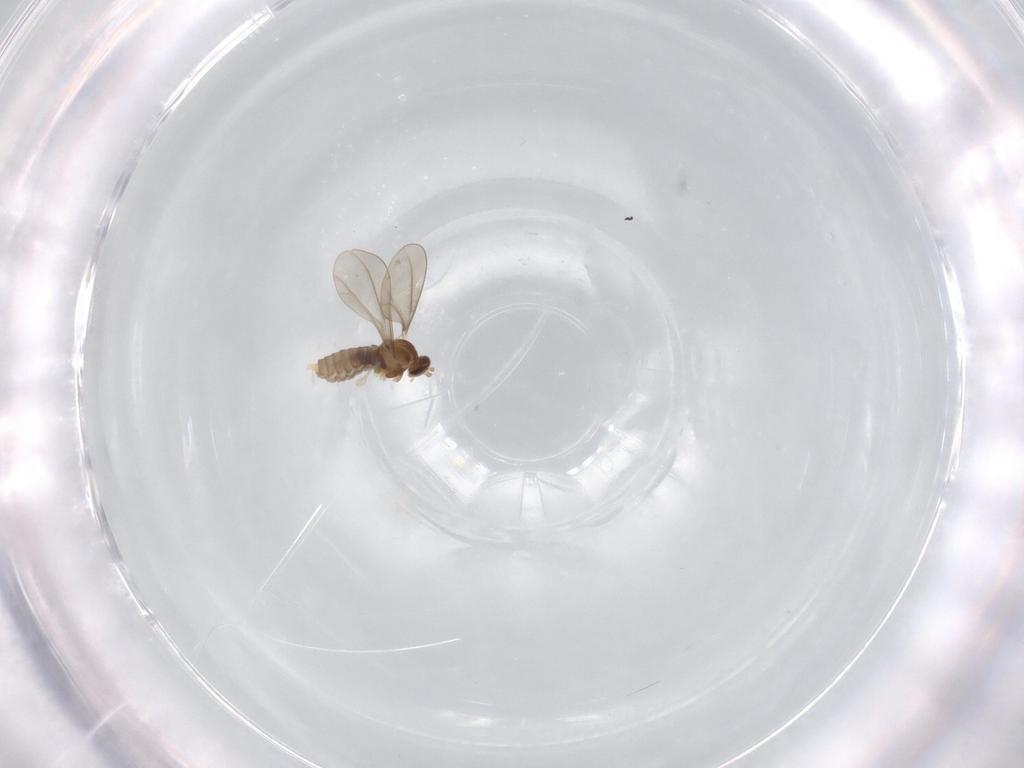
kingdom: Animalia
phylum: Arthropoda
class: Insecta
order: Diptera
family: Cecidomyiidae
